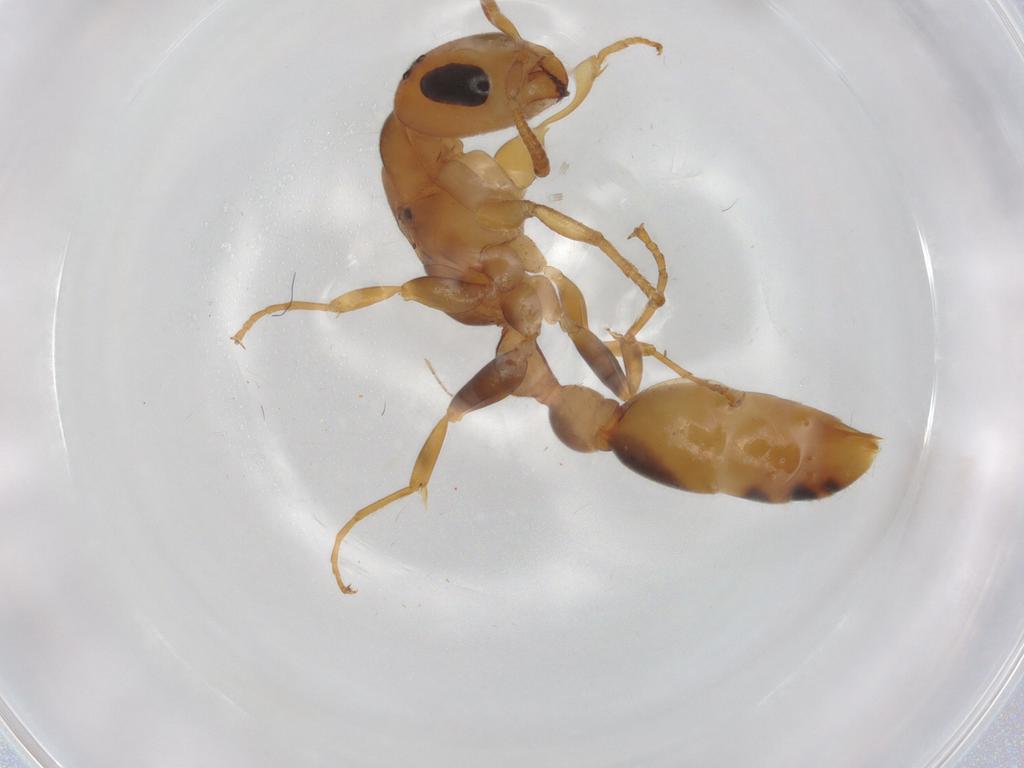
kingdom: Animalia
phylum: Arthropoda
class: Insecta
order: Hymenoptera
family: Formicidae
